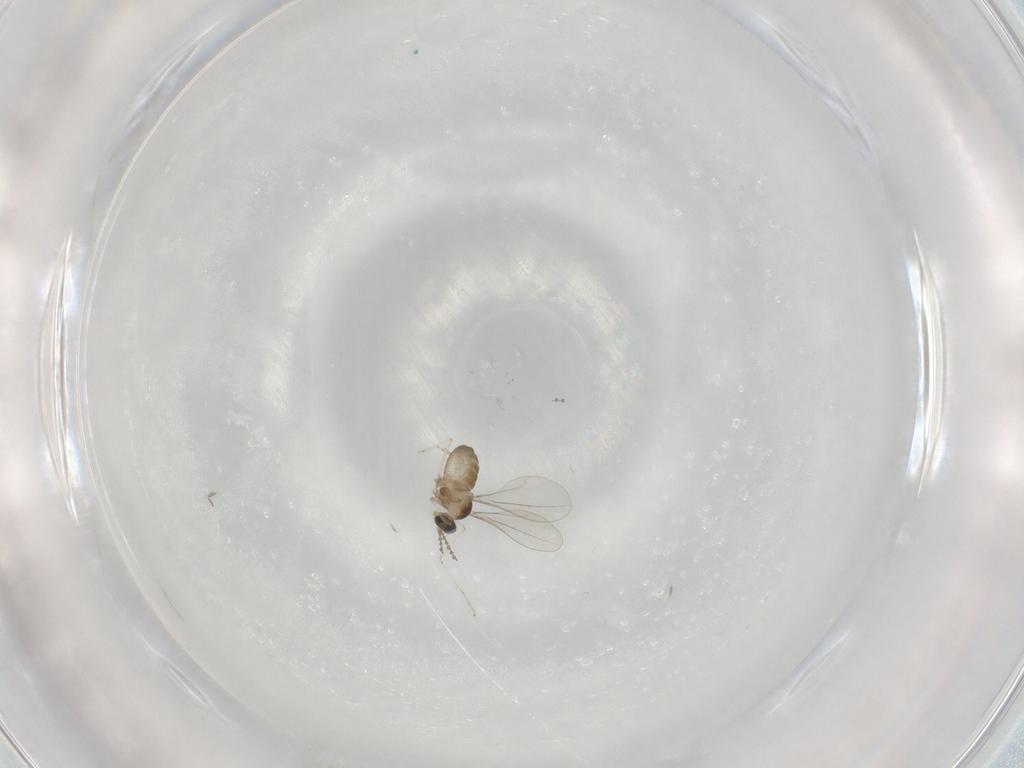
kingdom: Animalia
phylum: Arthropoda
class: Insecta
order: Diptera
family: Chironomidae
